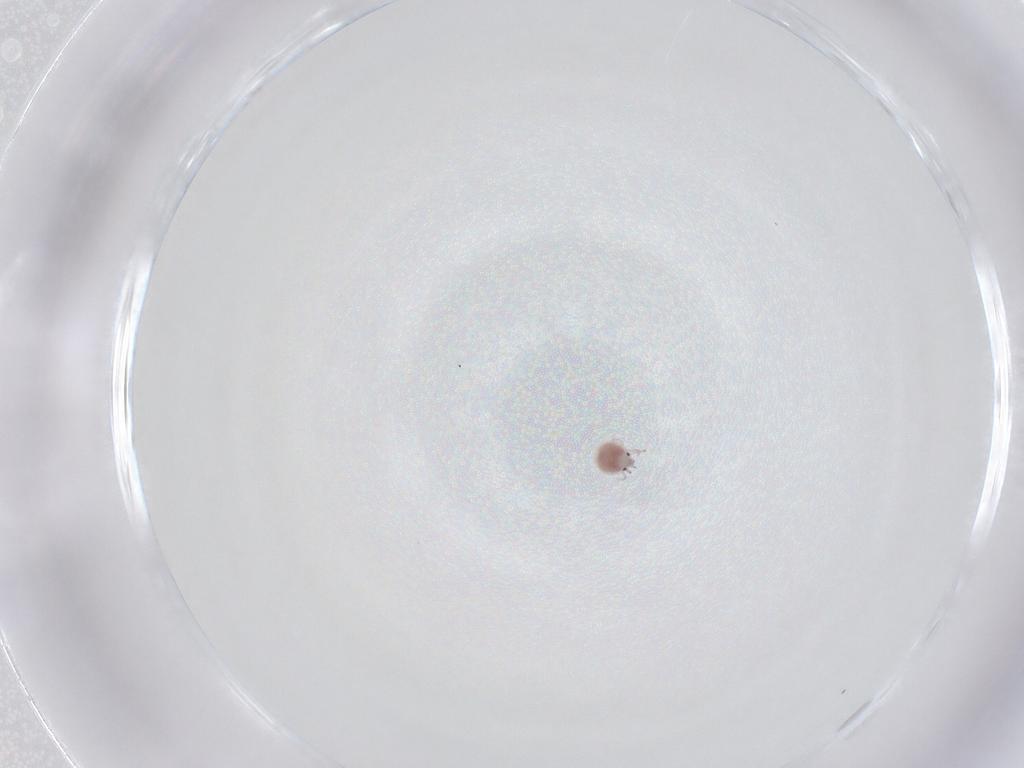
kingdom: Animalia
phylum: Arthropoda
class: Arachnida
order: Trombidiformes
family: Pionidae
